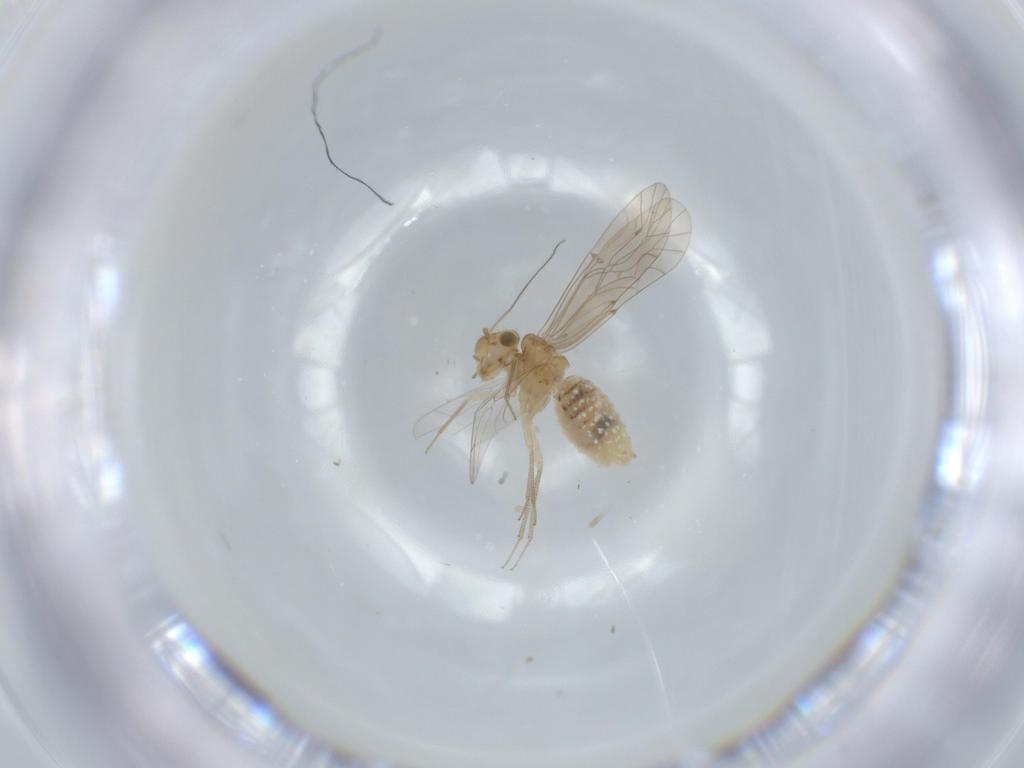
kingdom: Animalia
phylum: Arthropoda
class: Insecta
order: Psocodea
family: Lachesillidae
